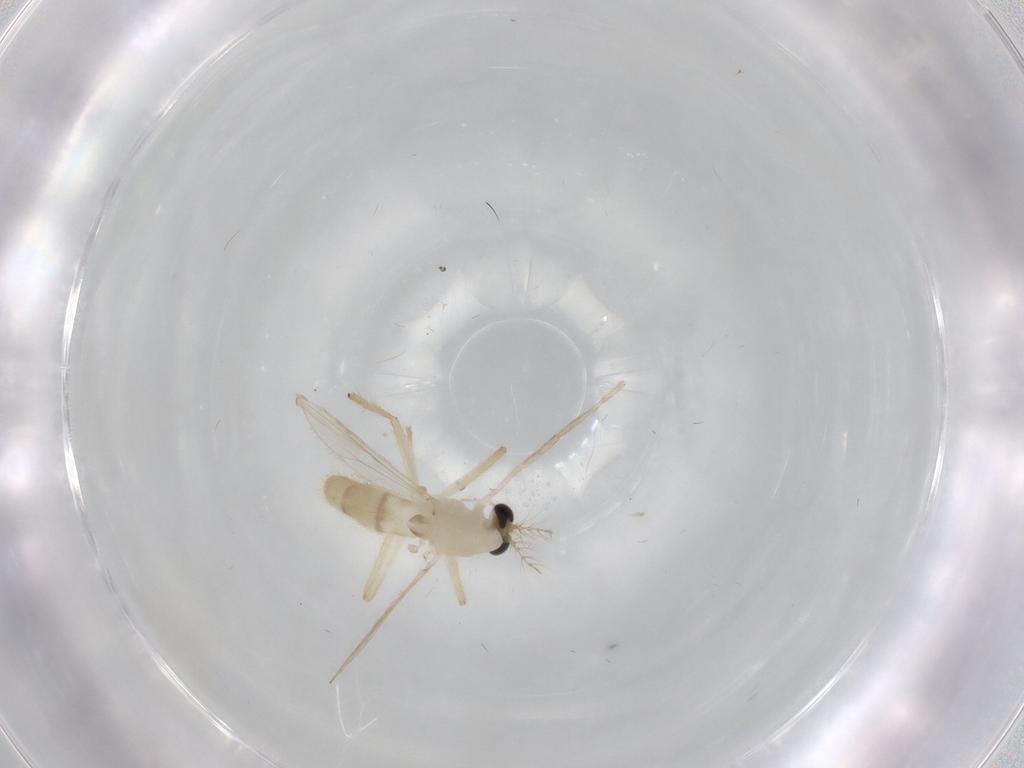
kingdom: Animalia
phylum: Arthropoda
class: Insecta
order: Diptera
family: Chironomidae
